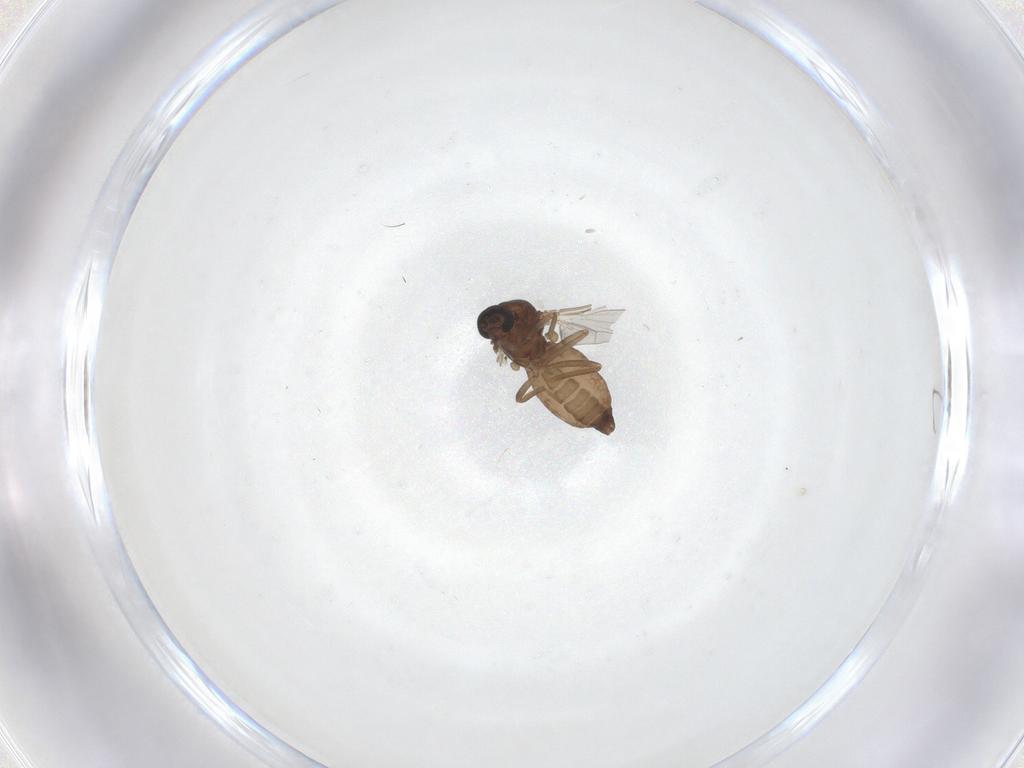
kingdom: Animalia
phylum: Arthropoda
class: Insecta
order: Diptera
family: Ceratopogonidae
